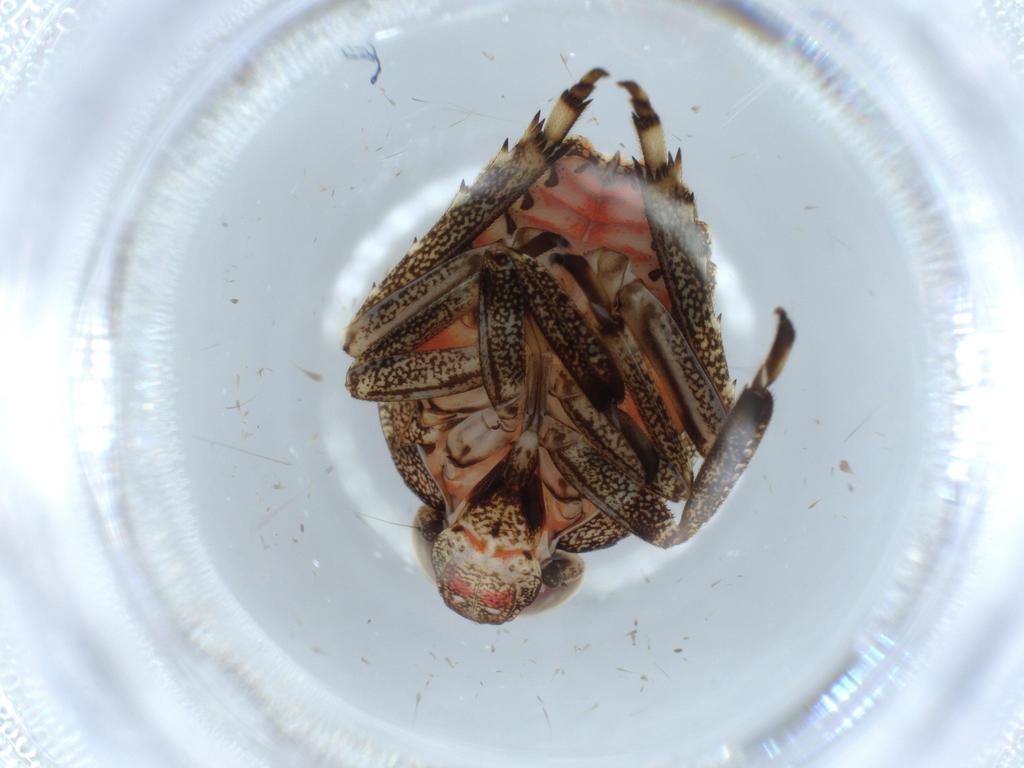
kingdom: Animalia
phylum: Arthropoda
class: Insecta
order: Hemiptera
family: Issidae
